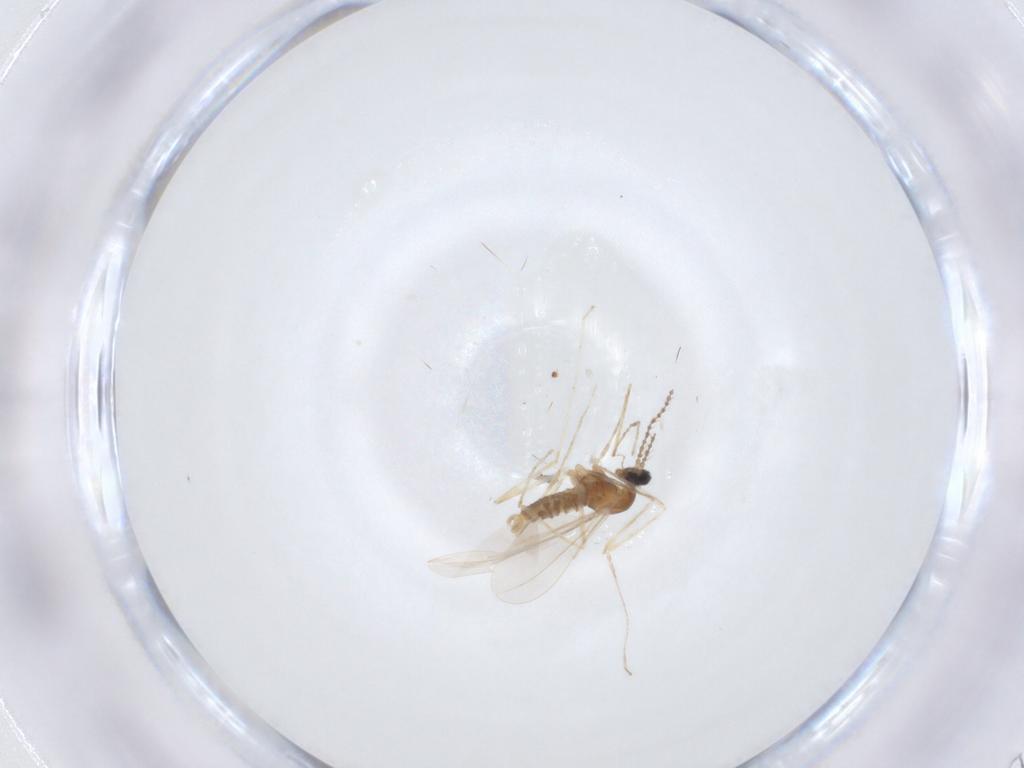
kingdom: Animalia
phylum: Arthropoda
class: Insecta
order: Diptera
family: Cecidomyiidae
